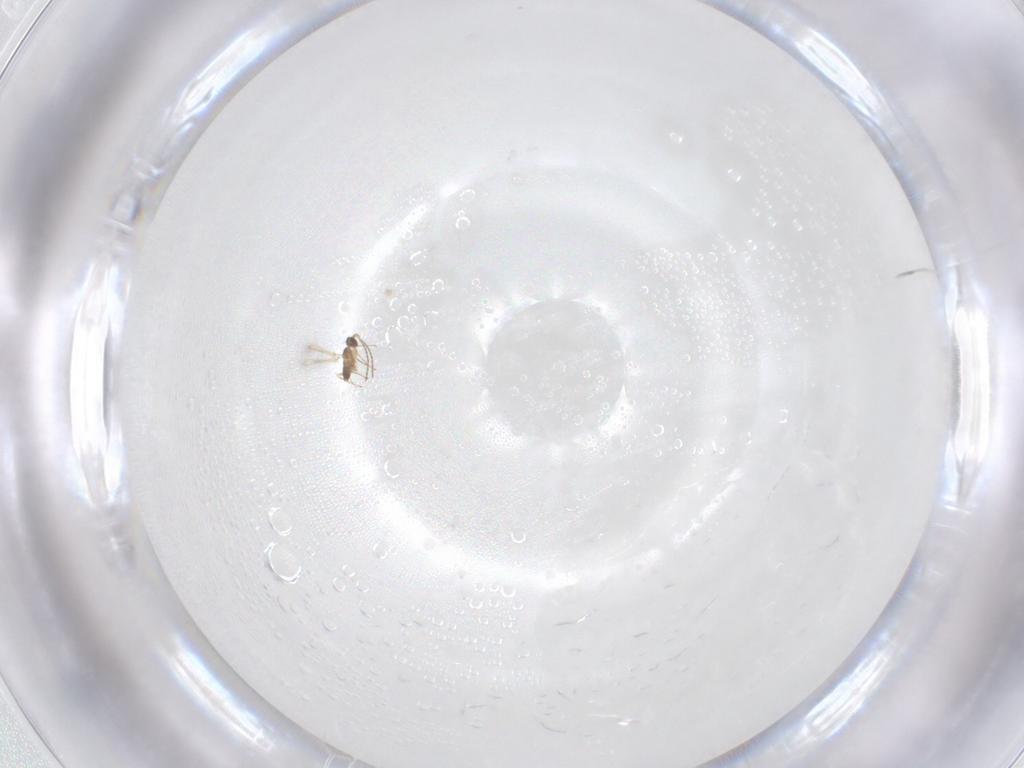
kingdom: Animalia
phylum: Arthropoda
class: Insecta
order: Hymenoptera
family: Mymaridae
